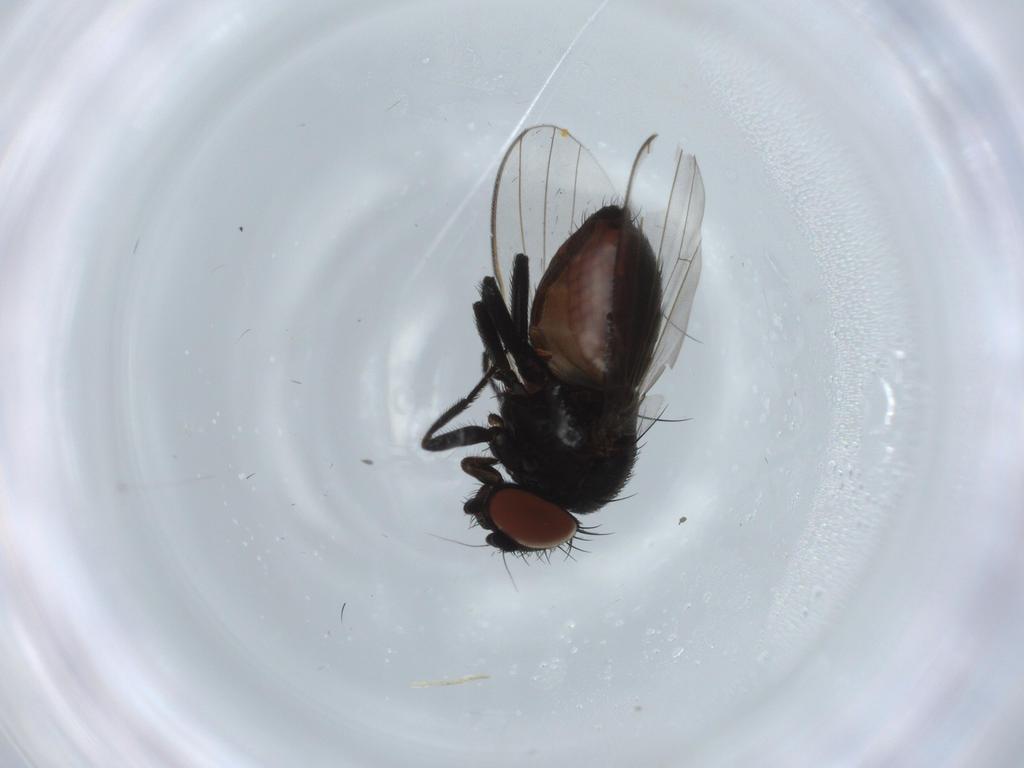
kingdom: Animalia
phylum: Arthropoda
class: Insecta
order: Diptera
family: Milichiidae
